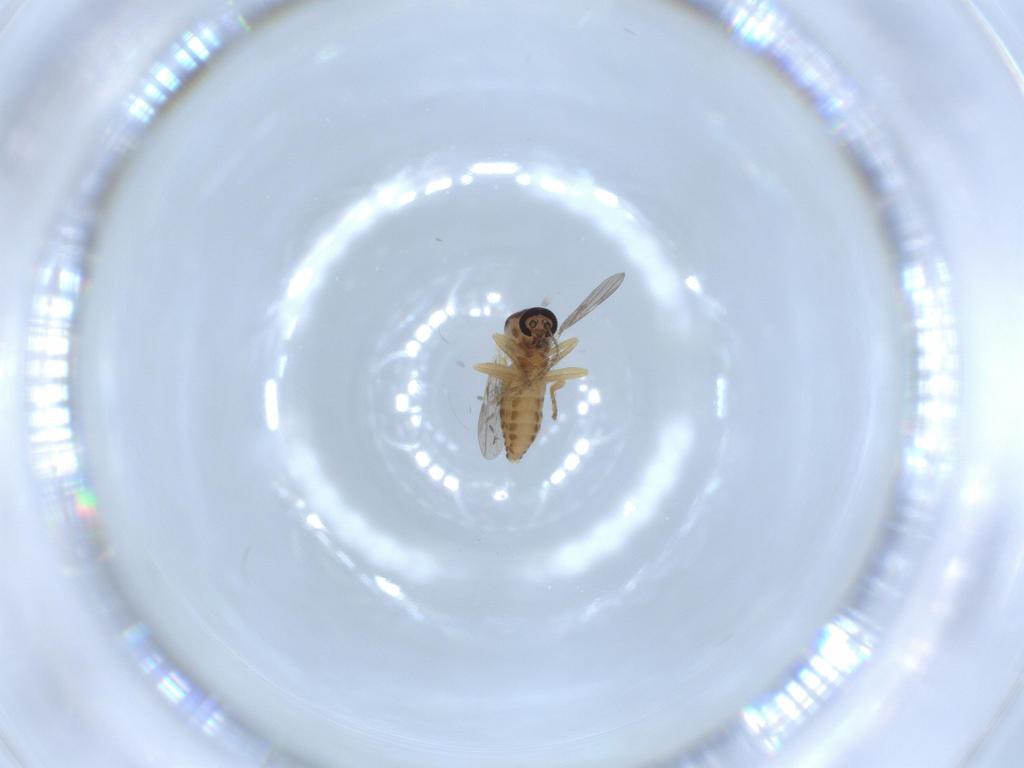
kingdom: Animalia
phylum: Arthropoda
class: Insecta
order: Diptera
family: Ceratopogonidae
